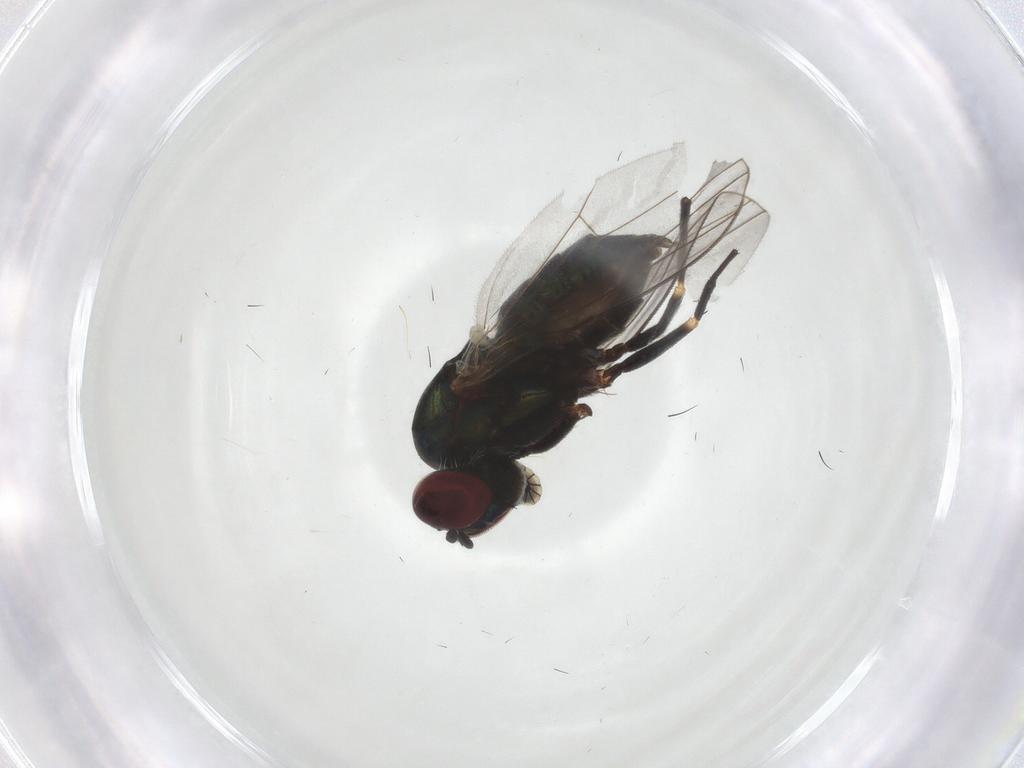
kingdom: Animalia
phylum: Arthropoda
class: Insecta
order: Diptera
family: Dolichopodidae
